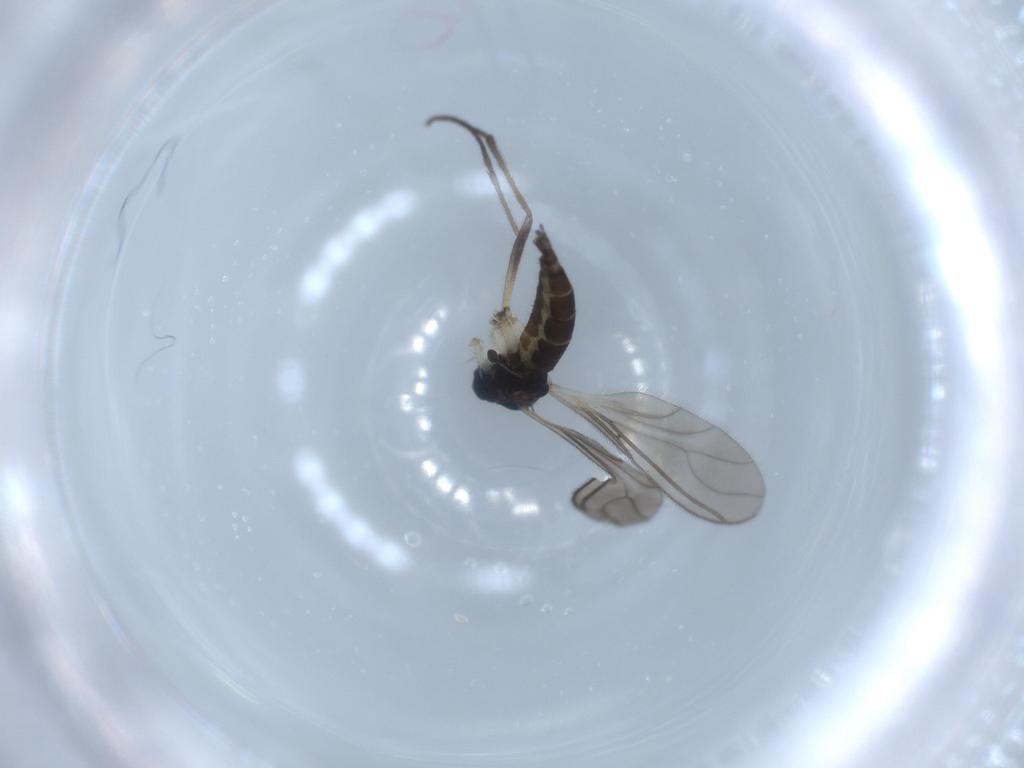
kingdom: Animalia
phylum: Arthropoda
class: Insecta
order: Diptera
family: Sciaridae
